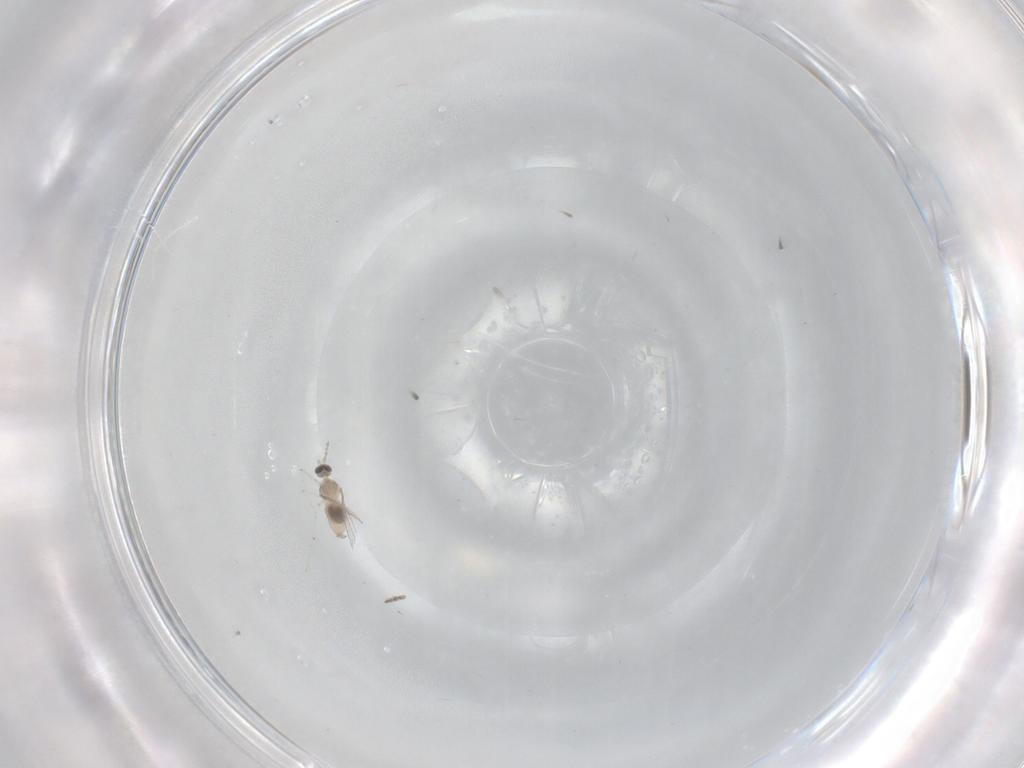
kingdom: Animalia
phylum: Arthropoda
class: Insecta
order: Diptera
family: Cecidomyiidae
